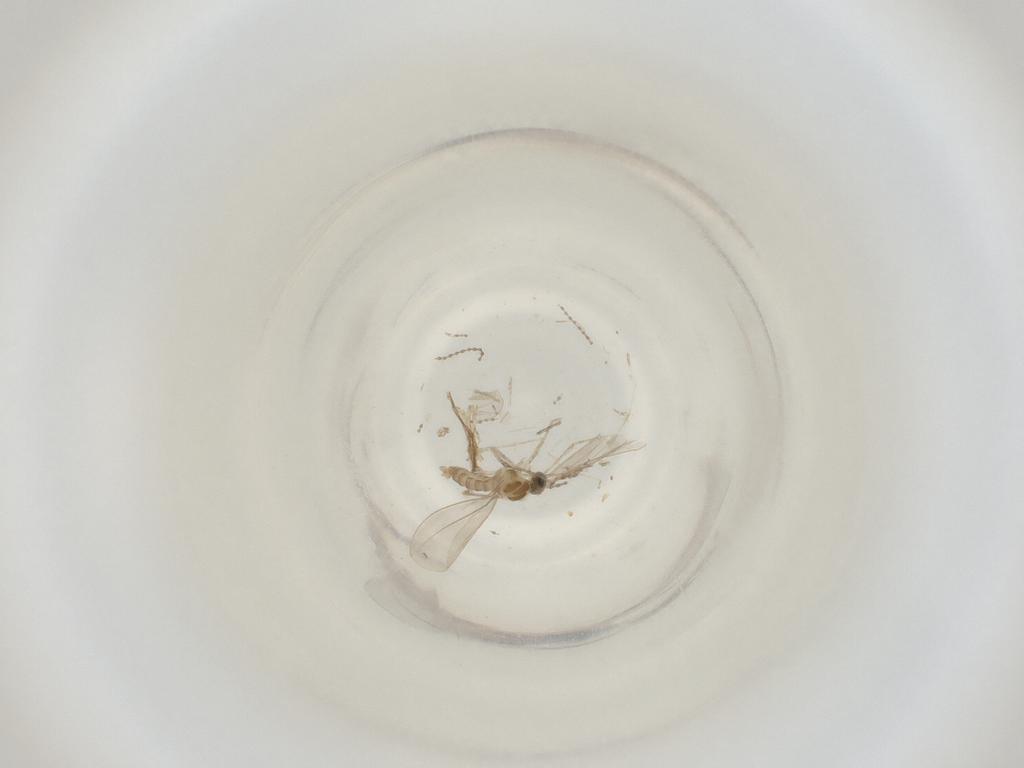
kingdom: Animalia
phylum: Arthropoda
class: Insecta
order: Diptera
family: Cecidomyiidae
